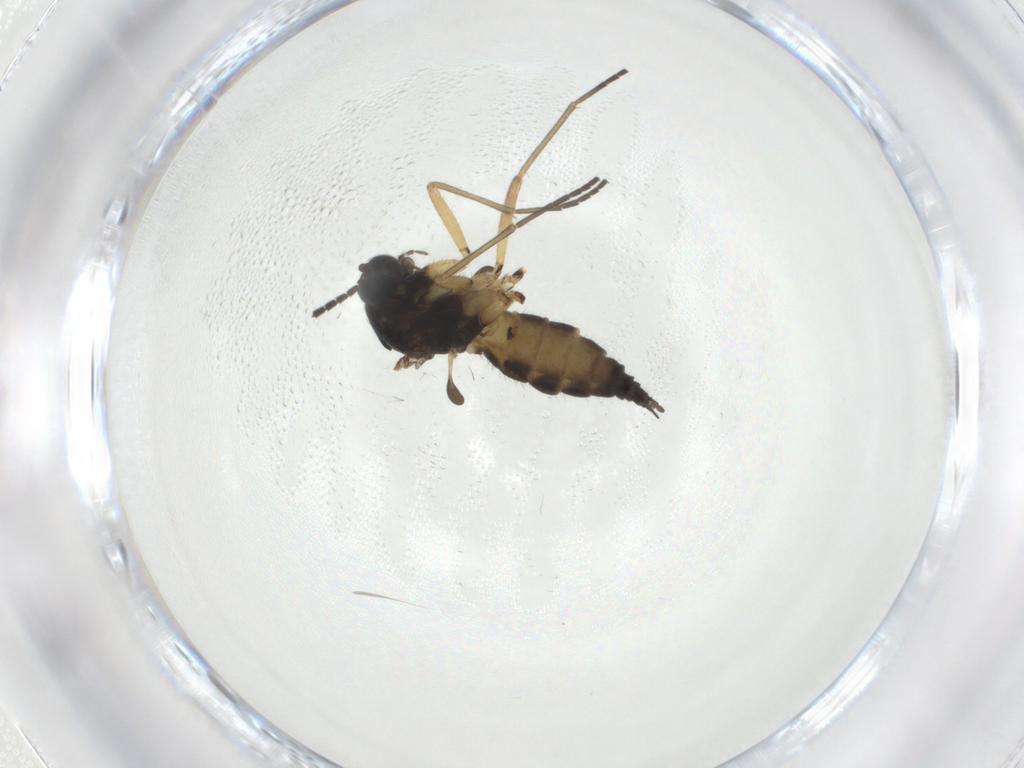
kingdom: Animalia
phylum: Arthropoda
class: Insecta
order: Diptera
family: Sciaridae
